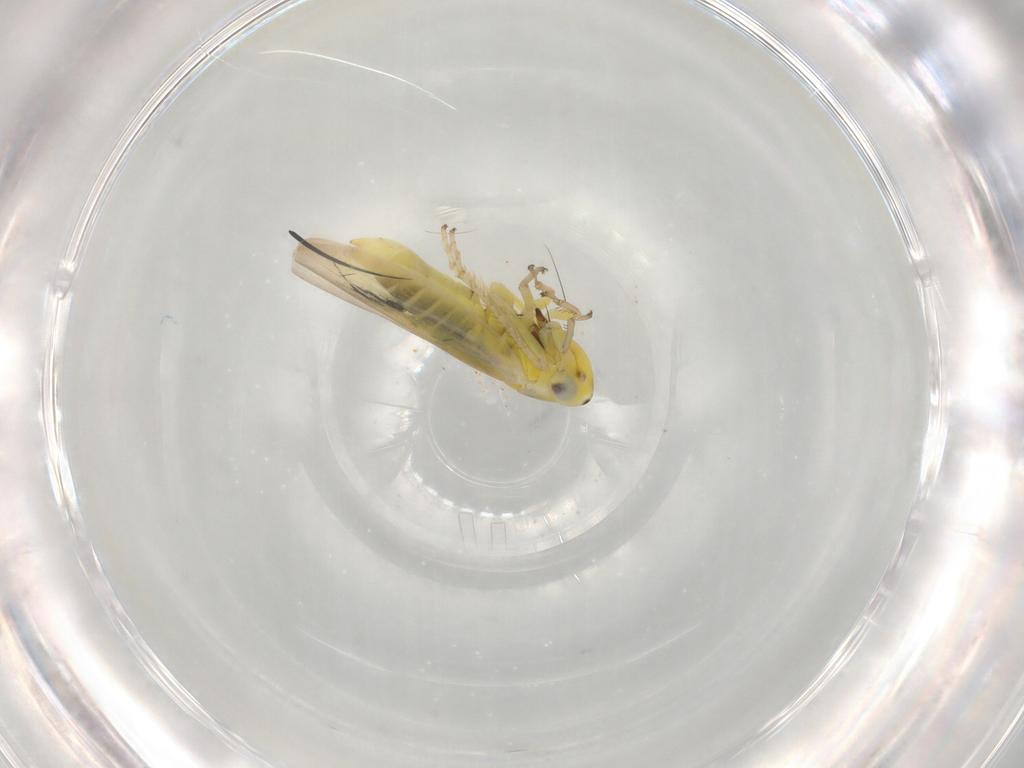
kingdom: Animalia
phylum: Arthropoda
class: Insecta
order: Hemiptera
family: Cicadellidae
